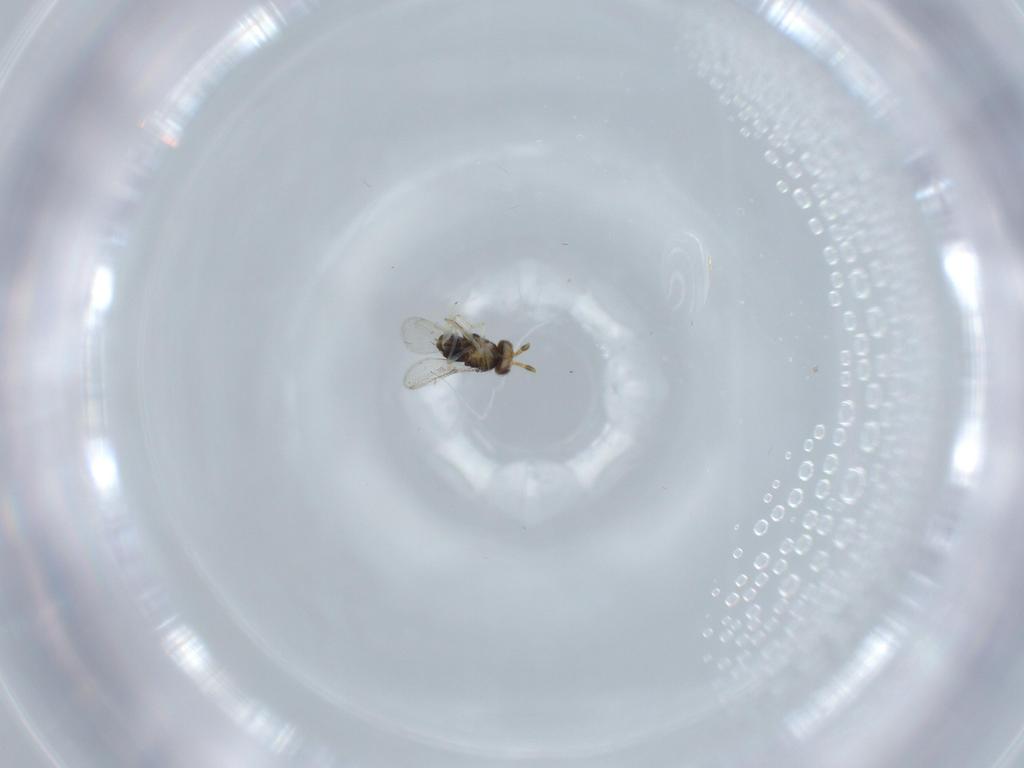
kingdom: Animalia
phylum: Arthropoda
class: Insecta
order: Hymenoptera
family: Aphelinidae
